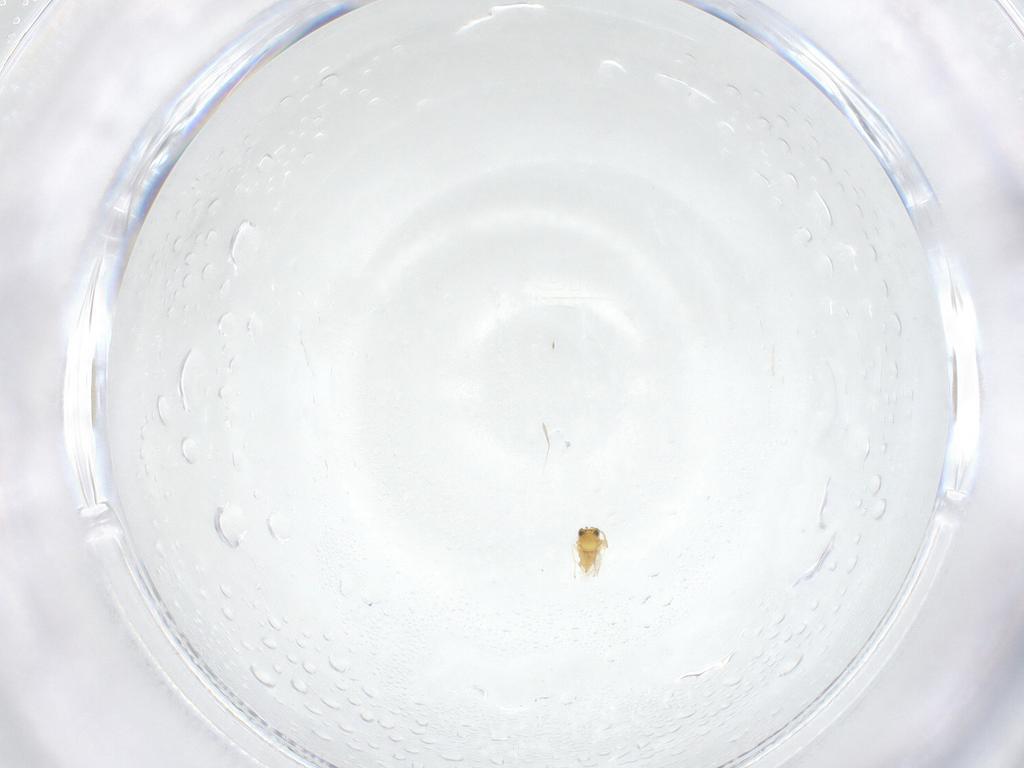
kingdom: Animalia
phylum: Arthropoda
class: Insecta
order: Hymenoptera
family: Aphelinidae
